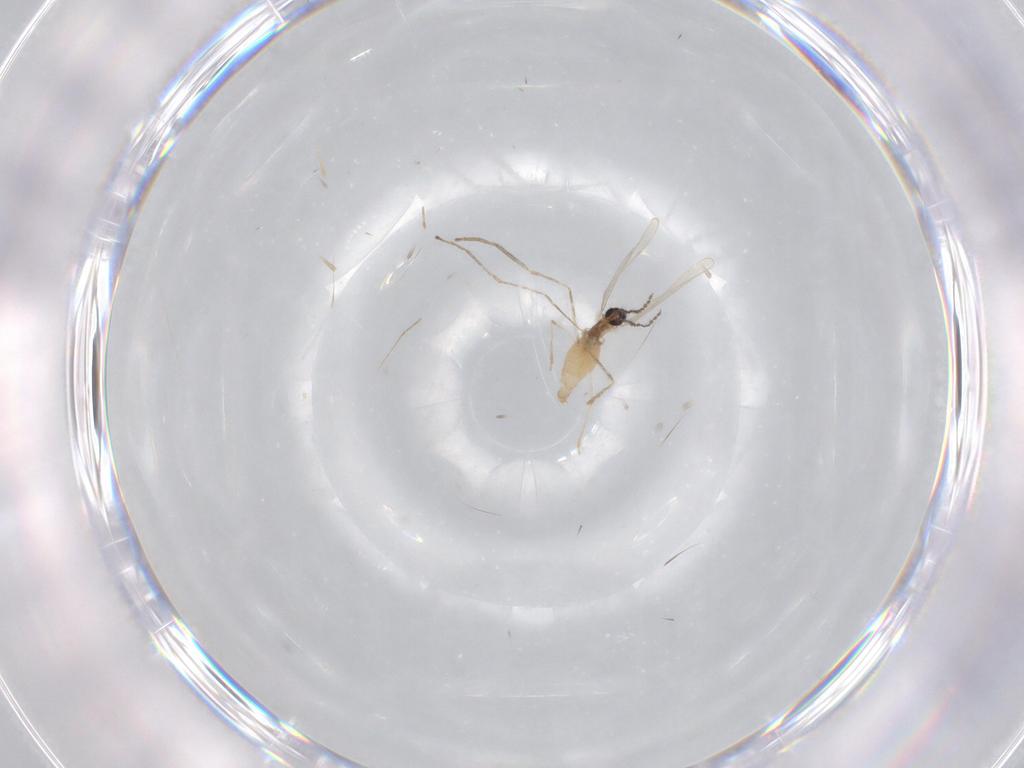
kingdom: Animalia
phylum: Arthropoda
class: Insecta
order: Diptera
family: Cecidomyiidae
